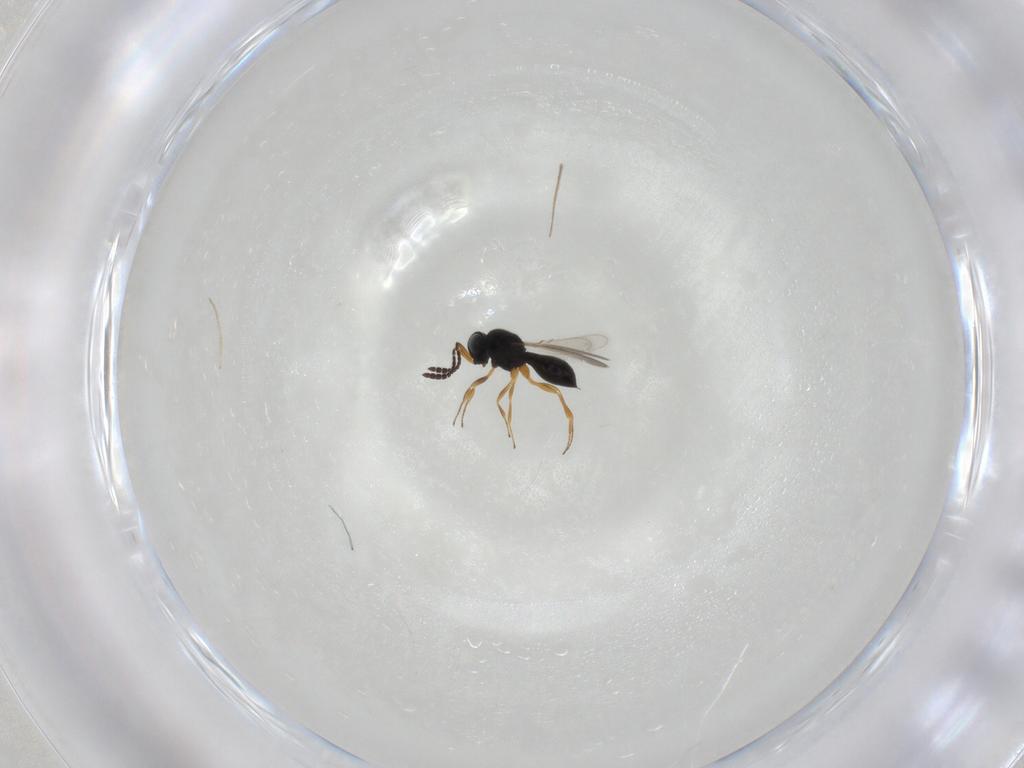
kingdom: Animalia
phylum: Arthropoda
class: Insecta
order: Hymenoptera
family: Scelionidae
